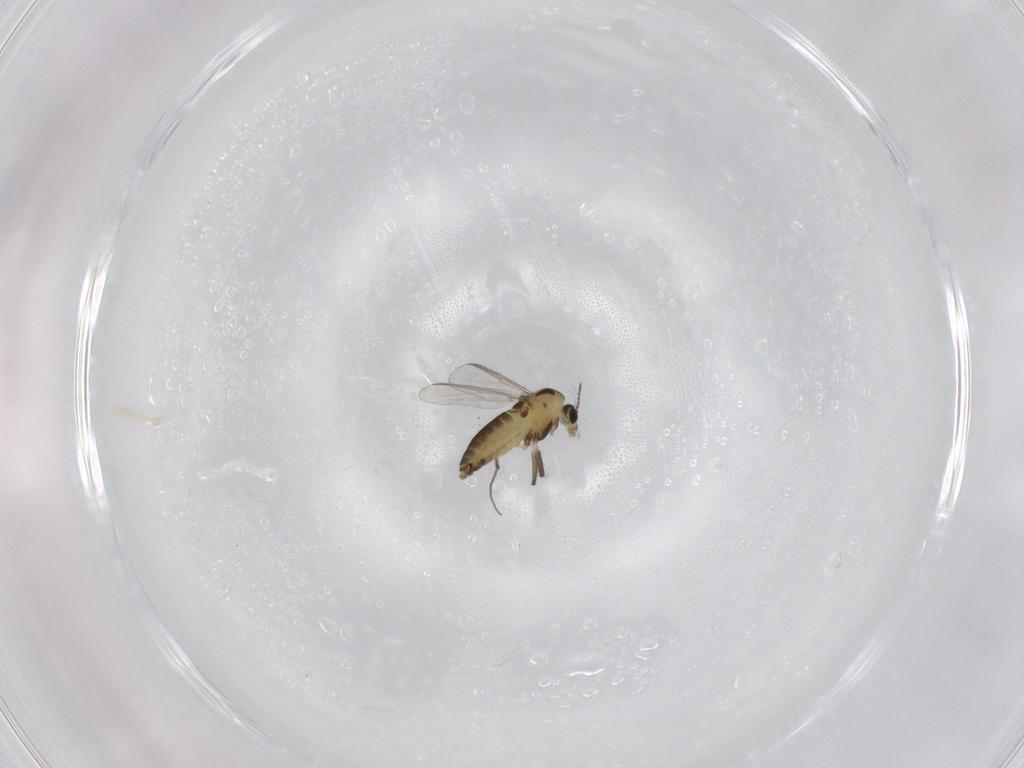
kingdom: Animalia
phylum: Arthropoda
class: Insecta
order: Diptera
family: Chironomidae
